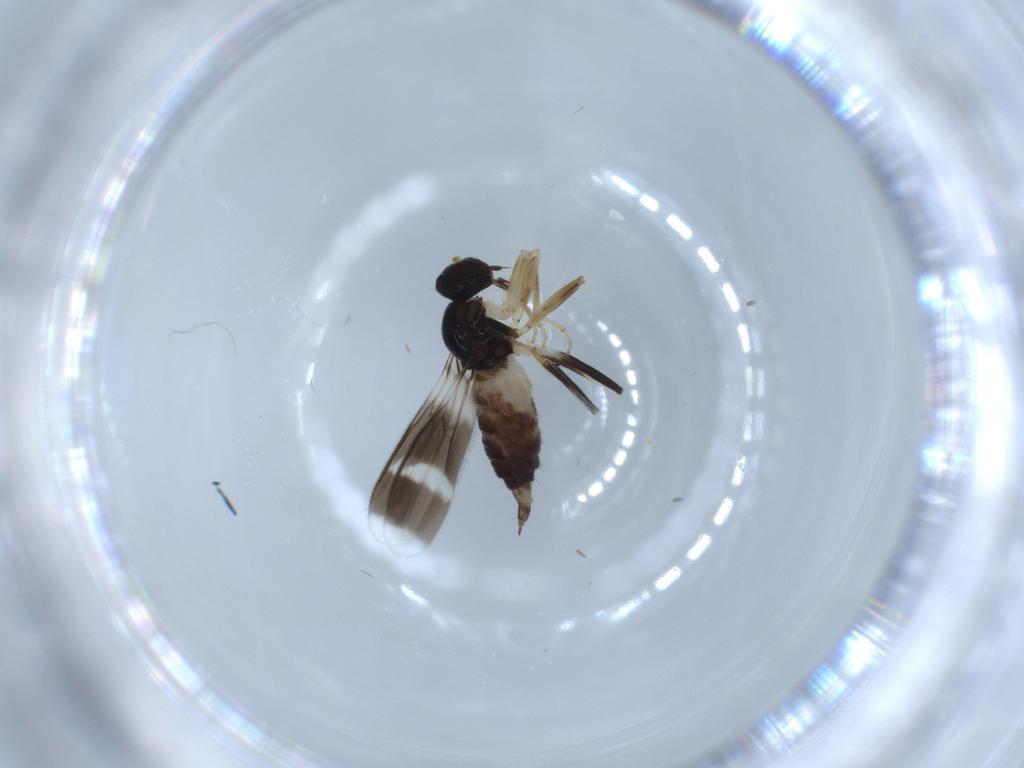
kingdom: Animalia
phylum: Arthropoda
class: Insecta
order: Diptera
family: Hybotidae
